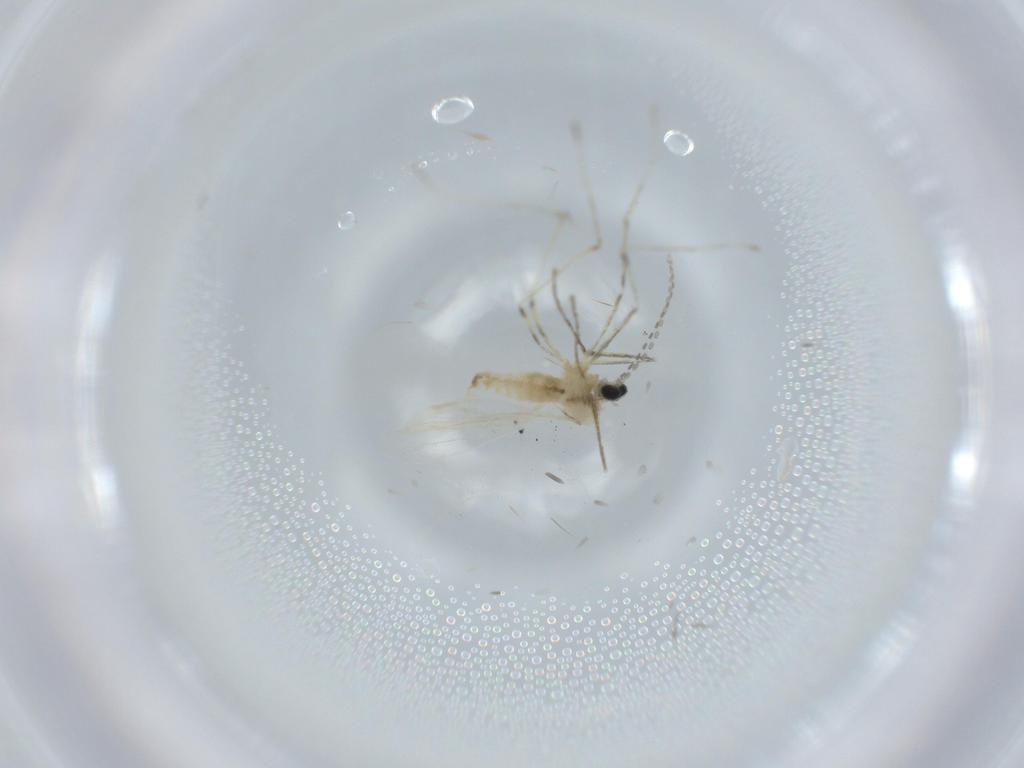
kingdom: Animalia
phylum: Arthropoda
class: Insecta
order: Diptera
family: Cecidomyiidae
